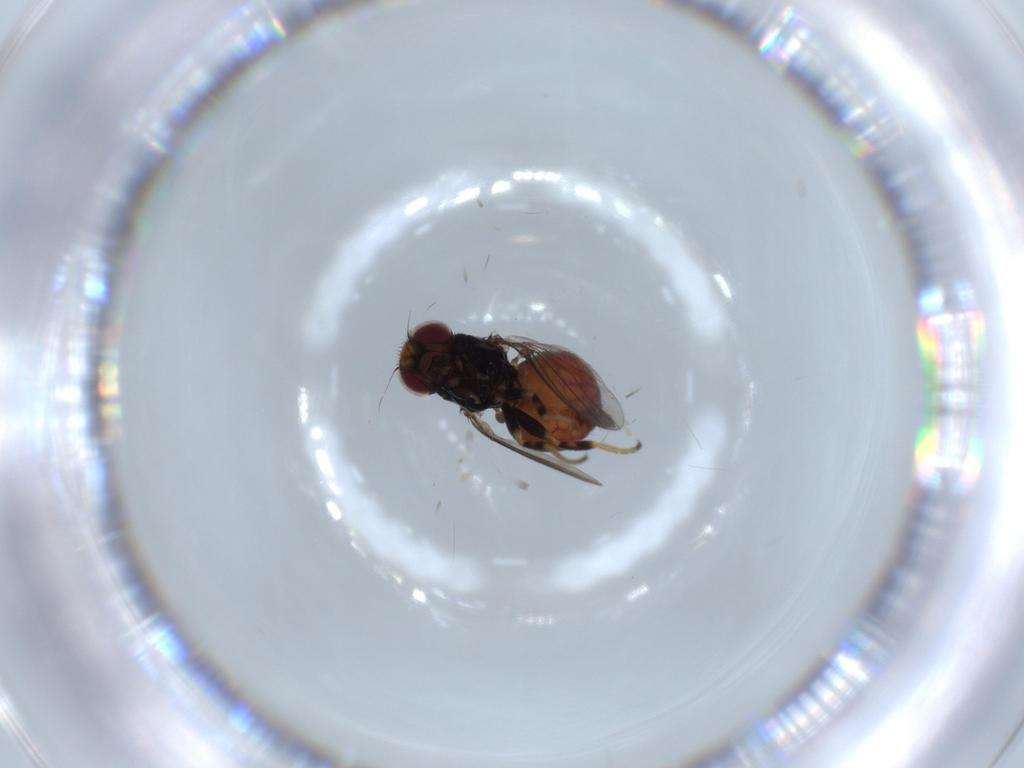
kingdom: Animalia
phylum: Arthropoda
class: Insecta
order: Diptera
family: Chloropidae
